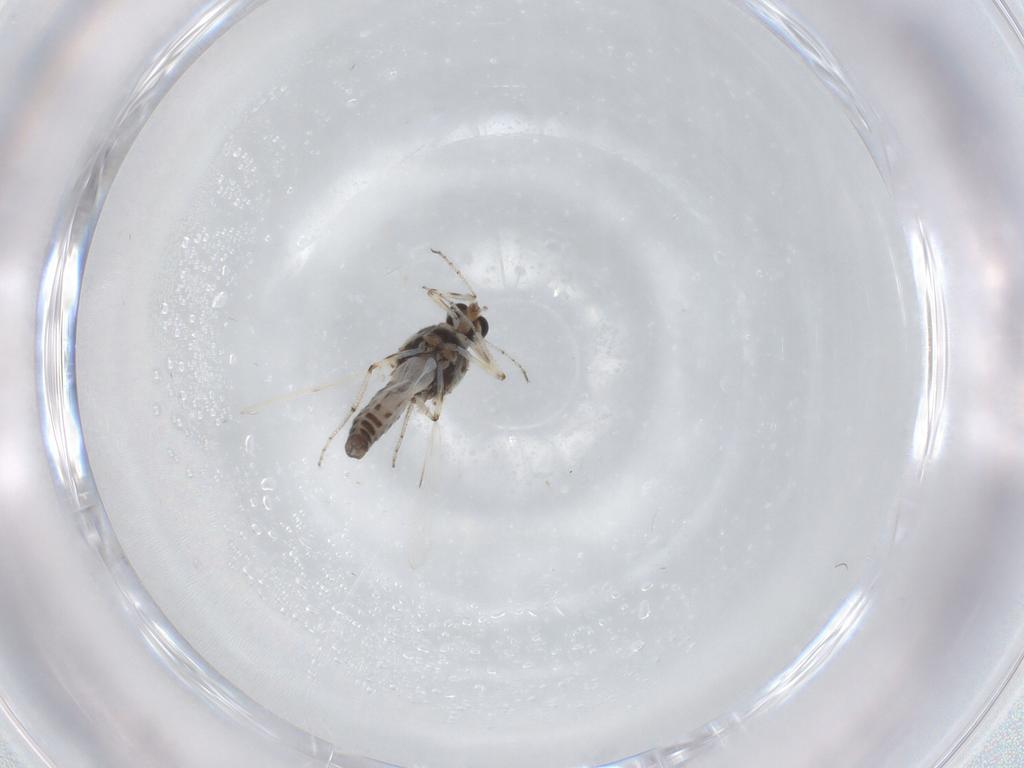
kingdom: Animalia
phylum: Arthropoda
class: Insecta
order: Diptera
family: Ceratopogonidae
